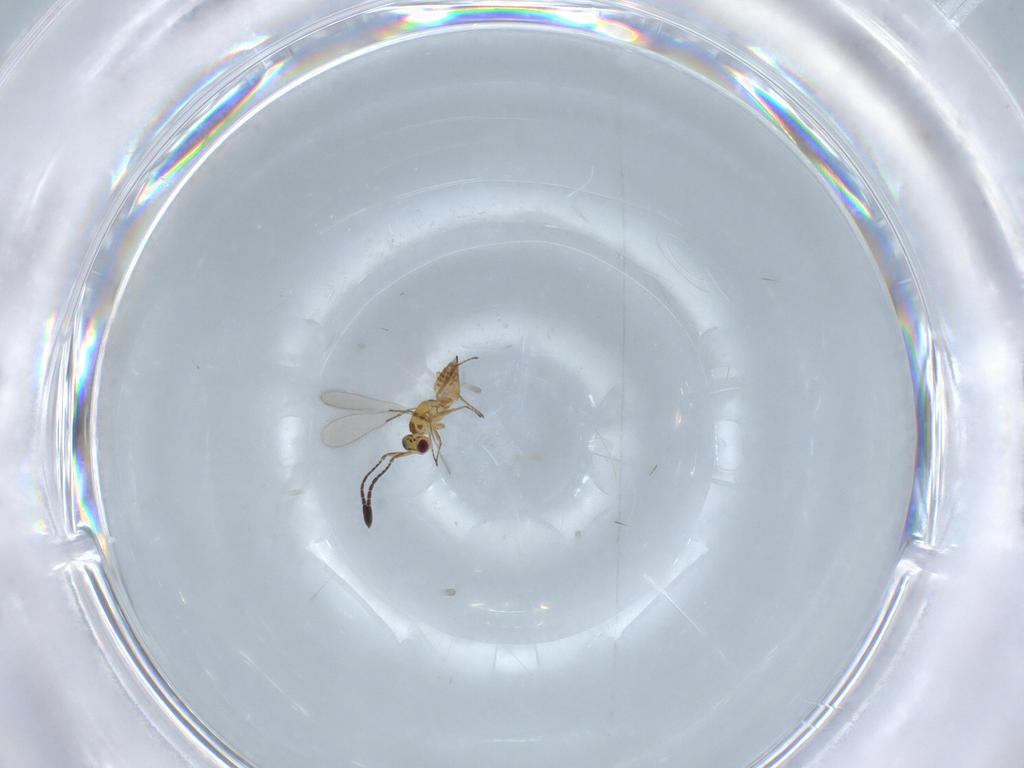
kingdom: Animalia
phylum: Arthropoda
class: Insecta
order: Hymenoptera
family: Mymaridae
